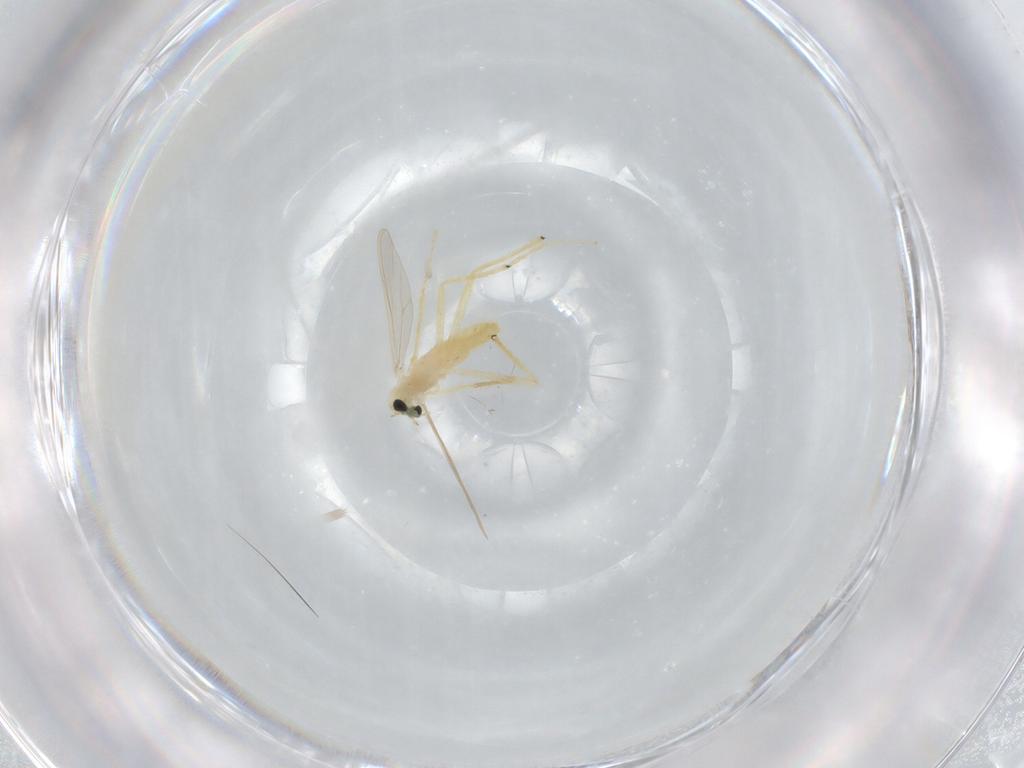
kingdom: Animalia
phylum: Arthropoda
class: Insecta
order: Diptera
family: Chironomidae
